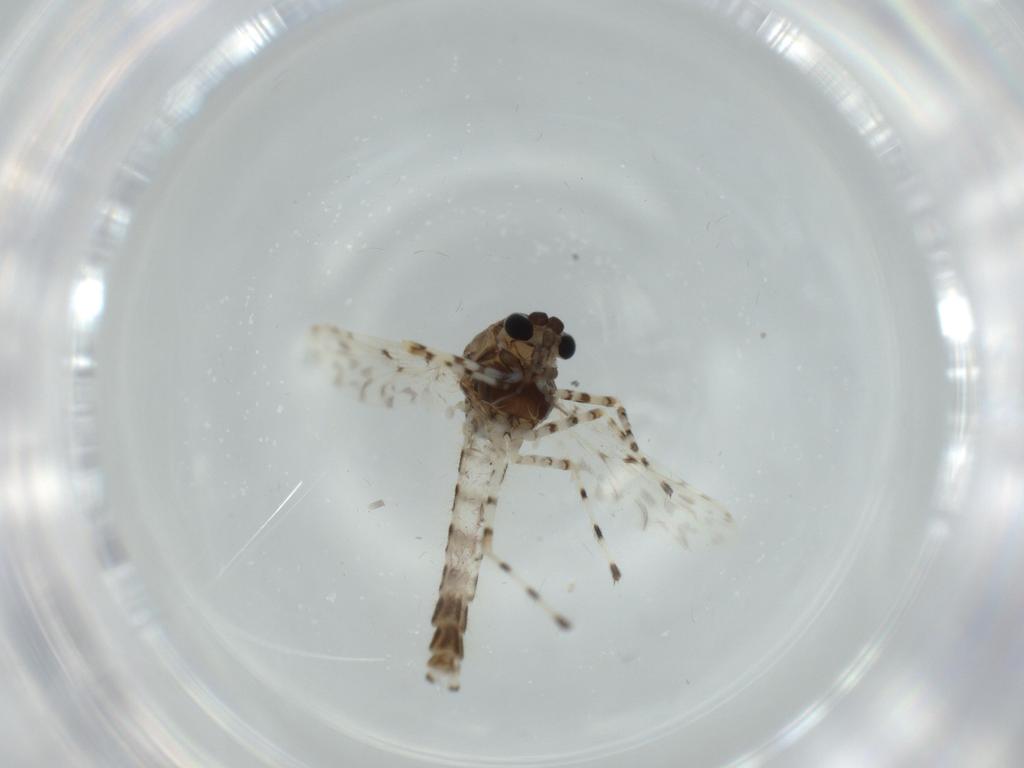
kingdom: Animalia
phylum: Arthropoda
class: Insecta
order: Diptera
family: Chironomidae
